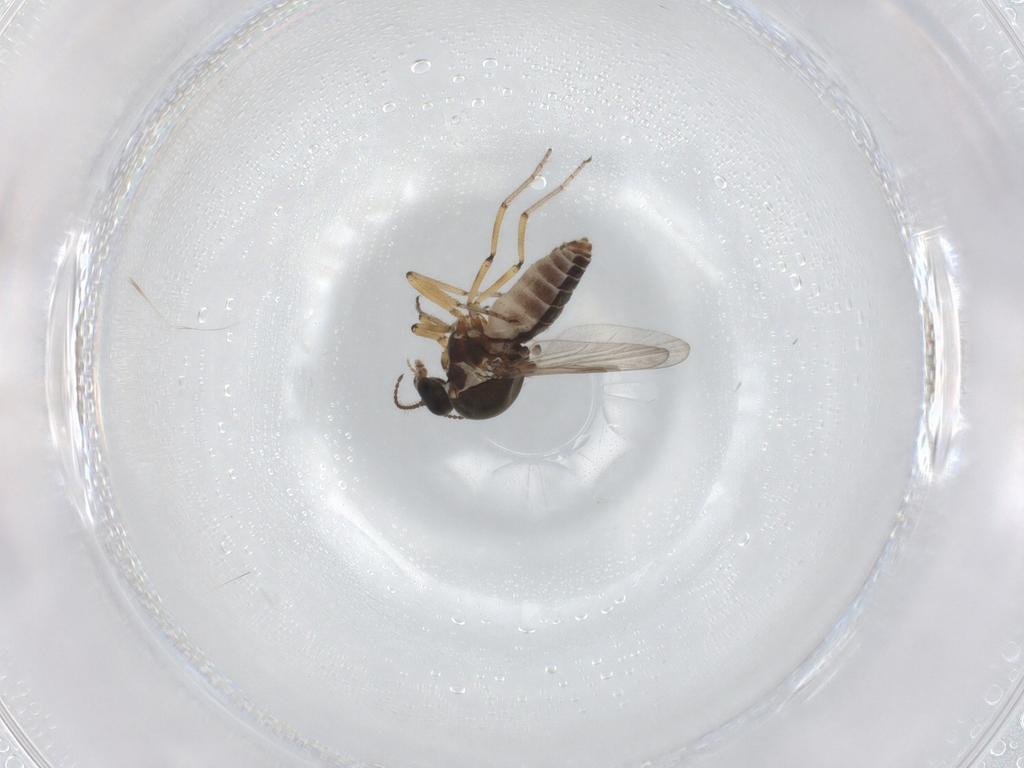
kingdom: Animalia
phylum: Arthropoda
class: Insecta
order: Diptera
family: Ceratopogonidae
